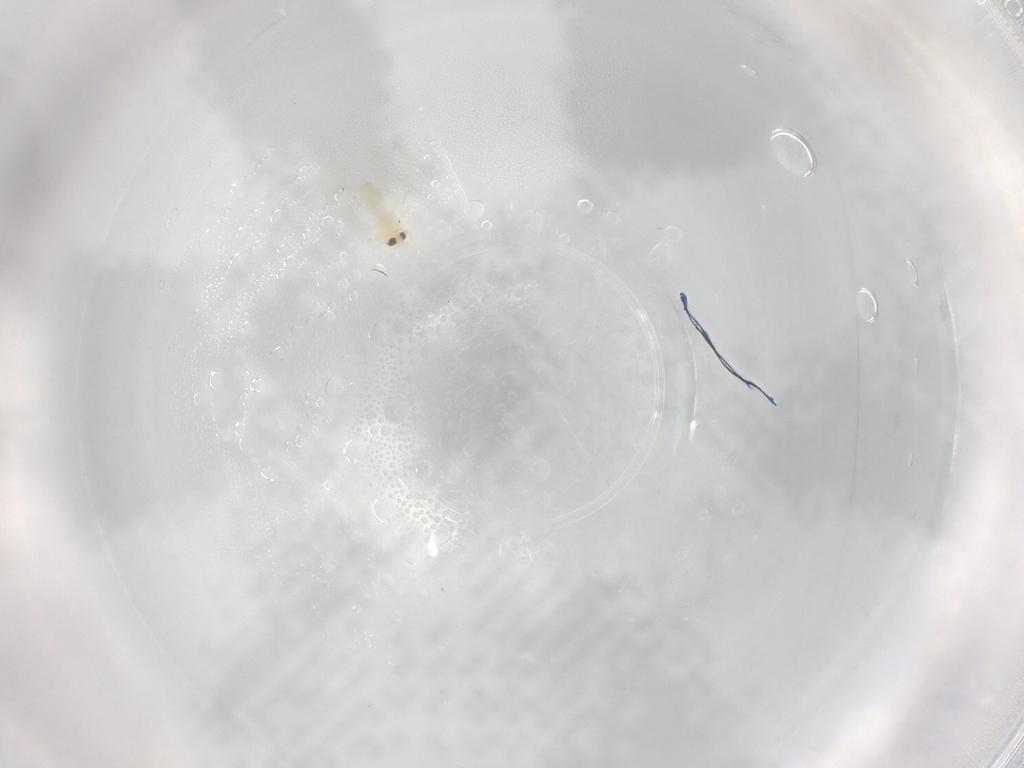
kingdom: Animalia
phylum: Arthropoda
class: Insecta
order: Hemiptera
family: Aleyrodidae
